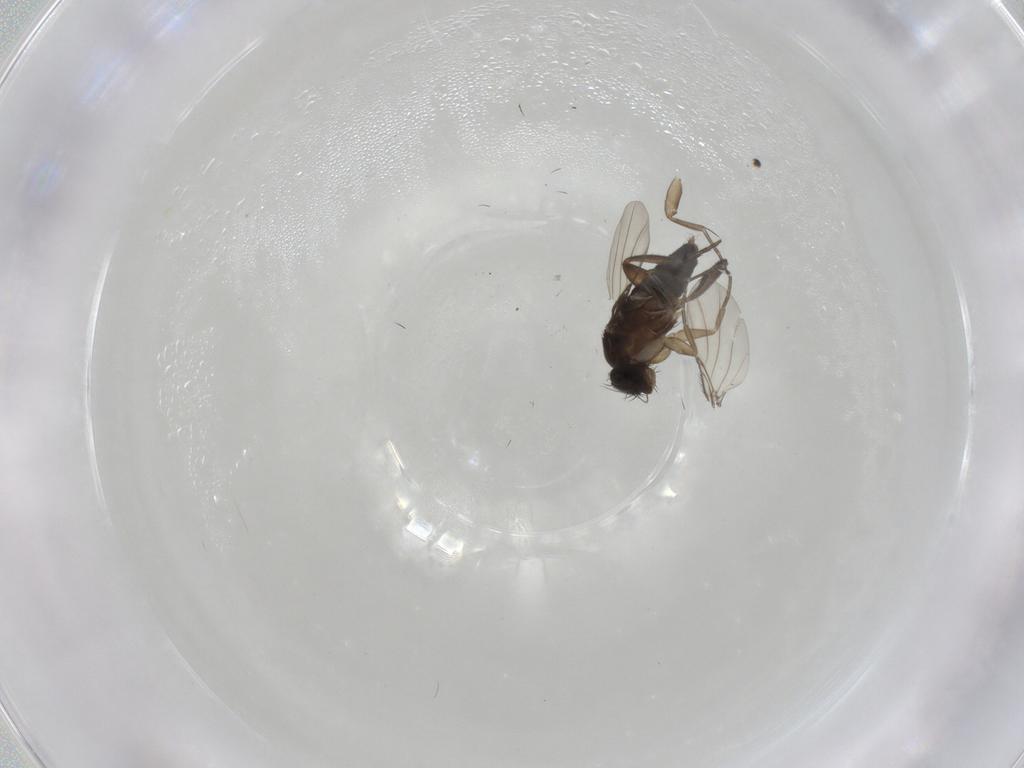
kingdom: Animalia
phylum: Arthropoda
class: Insecta
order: Diptera
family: Phoridae
